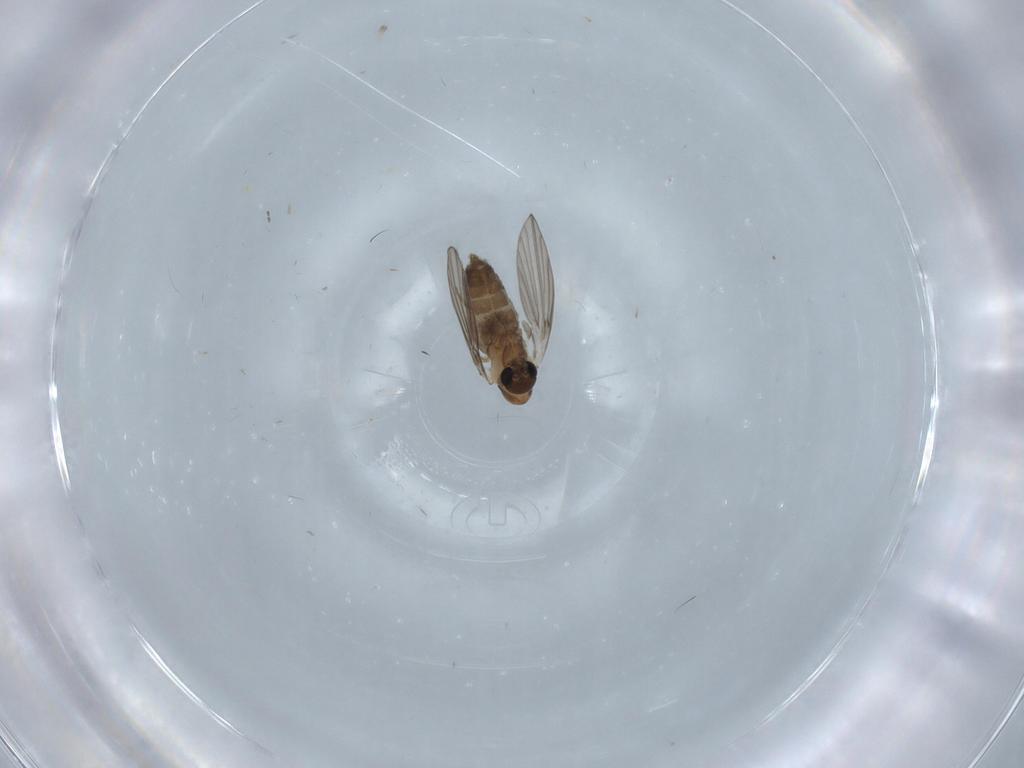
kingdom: Animalia
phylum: Arthropoda
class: Insecta
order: Diptera
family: Cecidomyiidae
